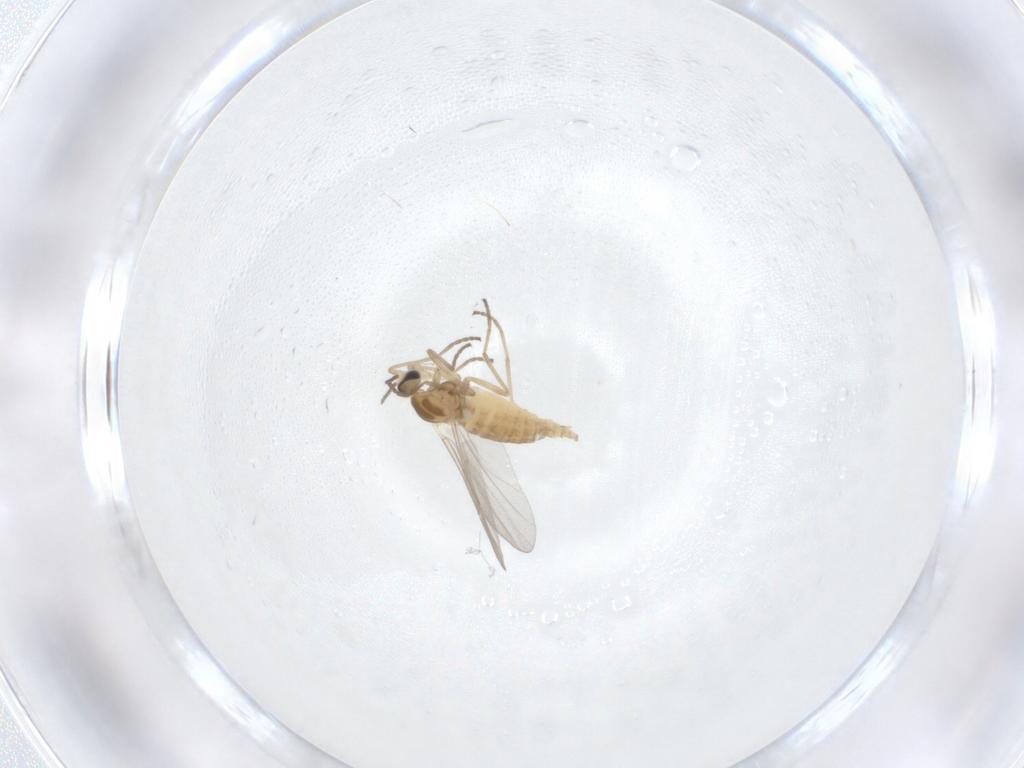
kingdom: Animalia
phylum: Arthropoda
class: Insecta
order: Diptera
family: Cecidomyiidae
